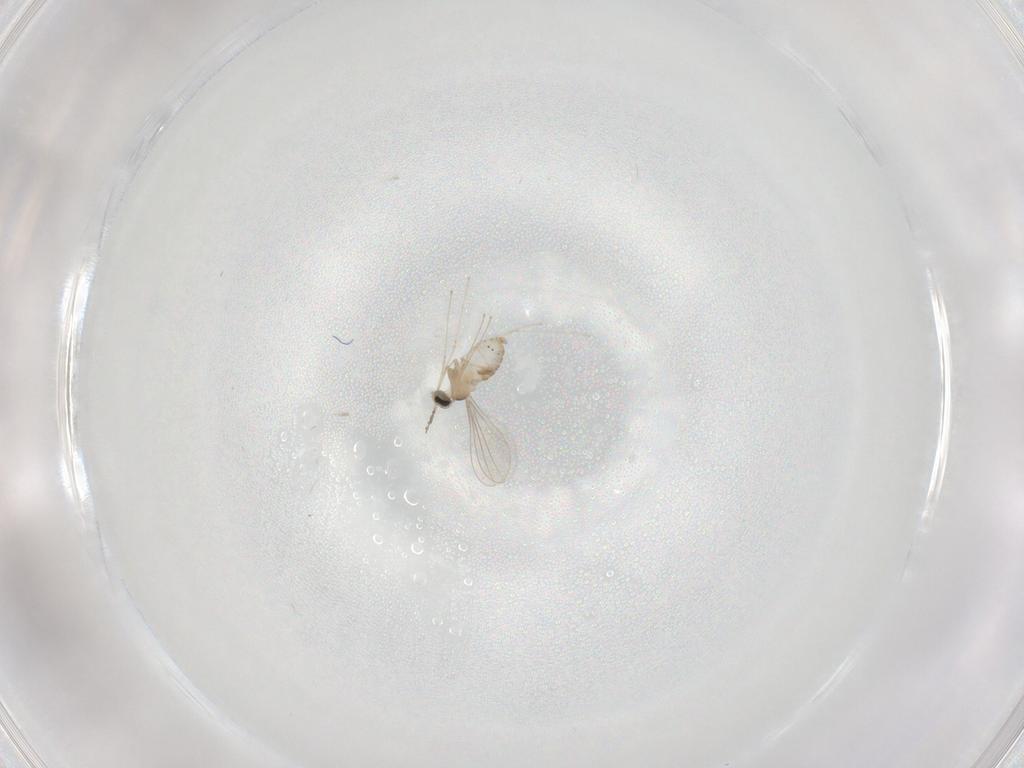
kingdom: Animalia
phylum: Arthropoda
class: Insecta
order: Diptera
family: Cecidomyiidae
